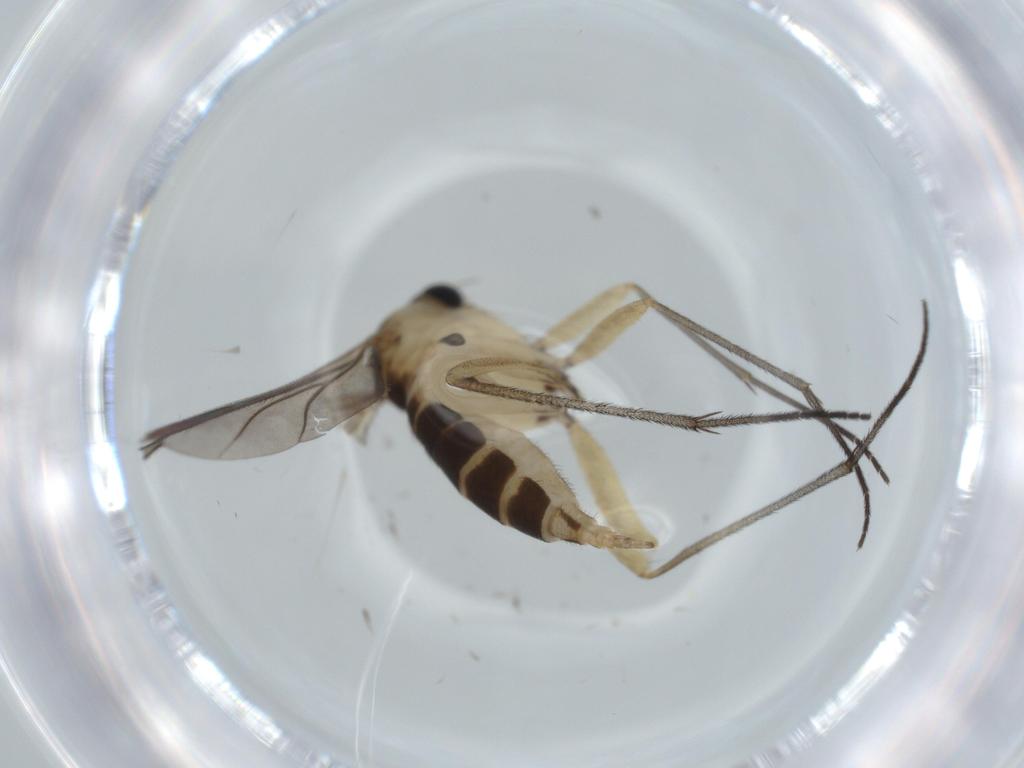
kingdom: Animalia
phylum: Arthropoda
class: Insecta
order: Diptera
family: Sciaridae
